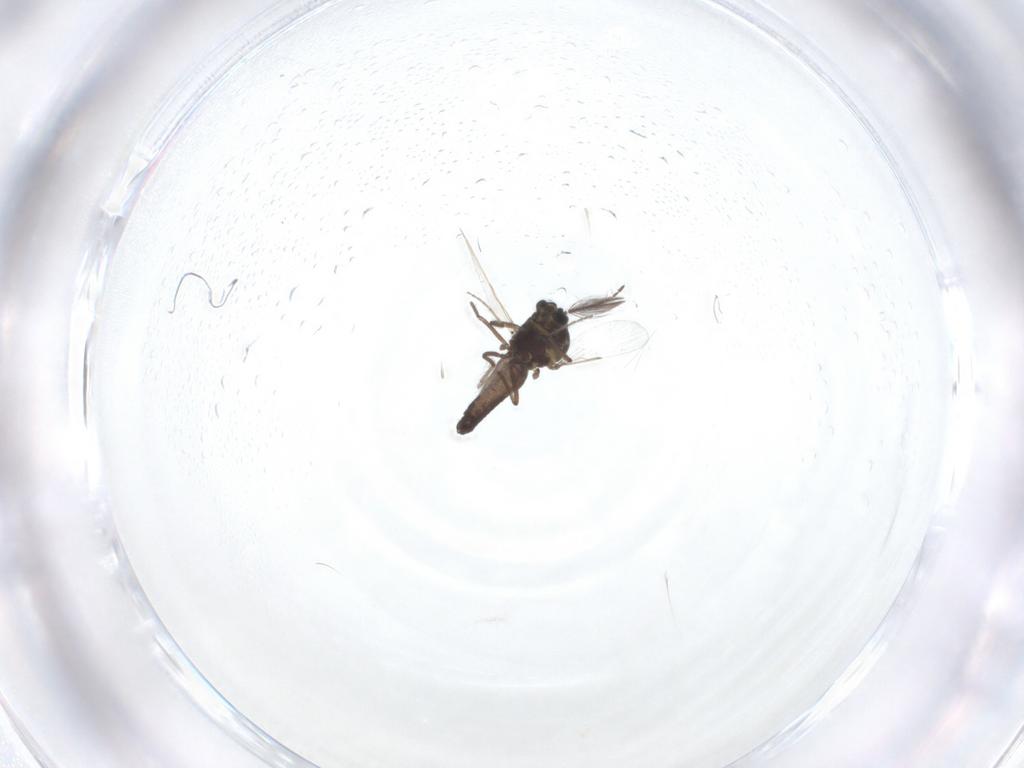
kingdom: Animalia
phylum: Arthropoda
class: Insecta
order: Diptera
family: Ceratopogonidae
